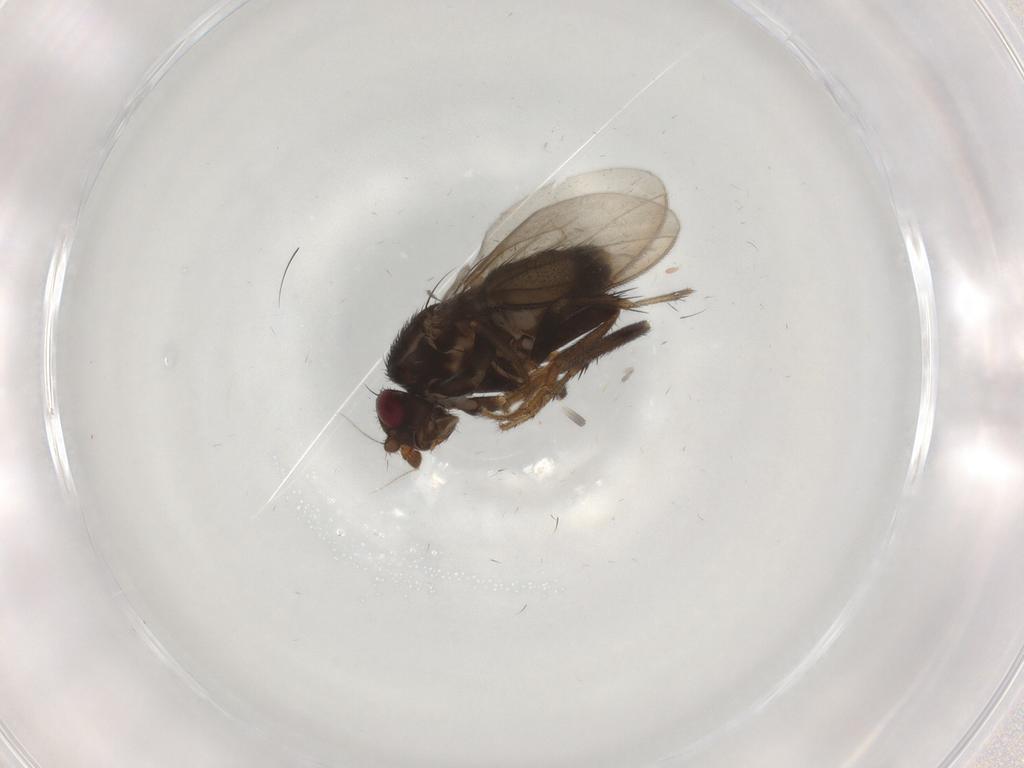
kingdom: Animalia
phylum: Arthropoda
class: Insecta
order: Diptera
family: Sphaeroceridae
